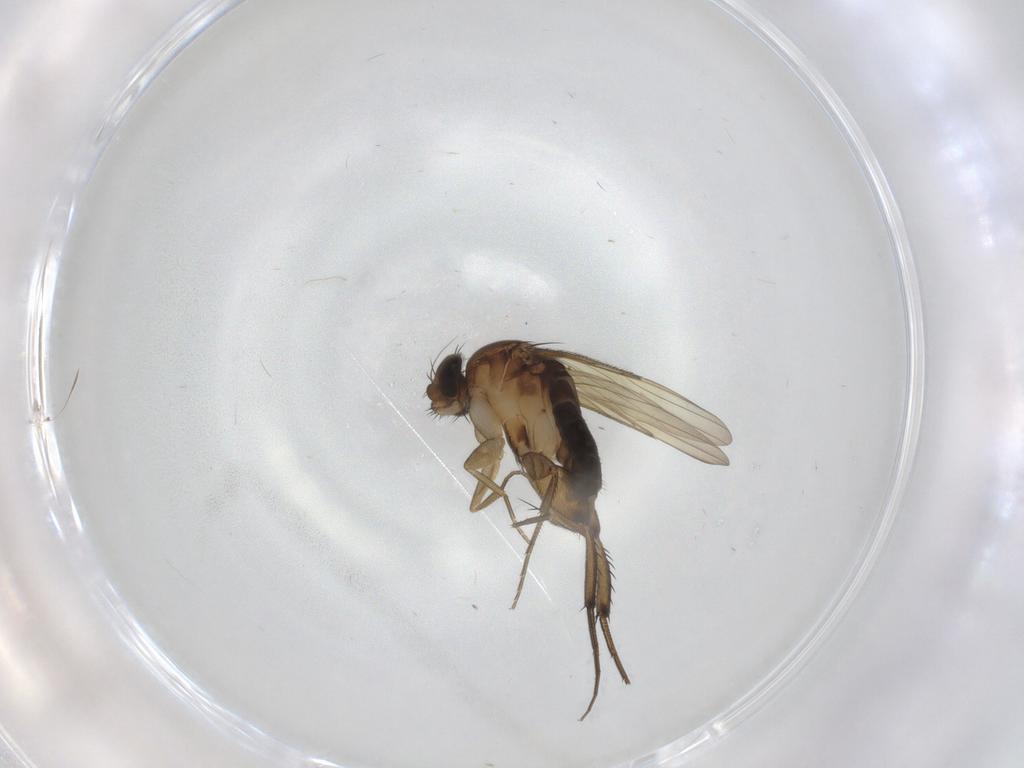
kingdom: Animalia
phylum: Arthropoda
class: Insecta
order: Diptera
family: Phoridae
